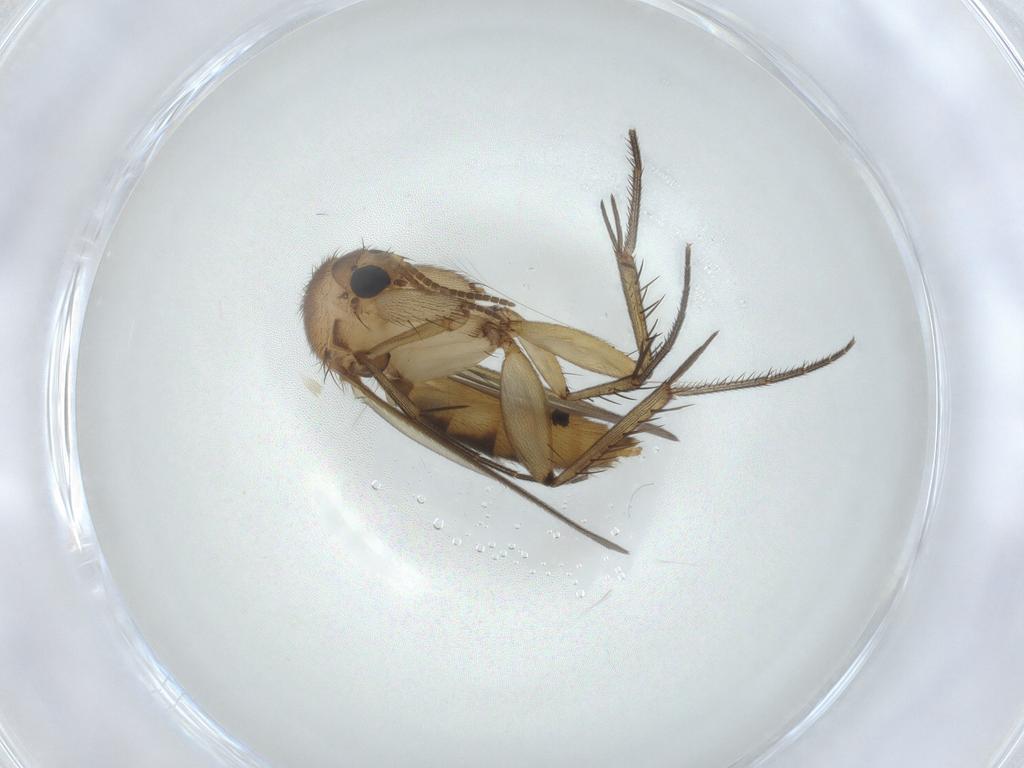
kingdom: Animalia
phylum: Arthropoda
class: Insecta
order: Diptera
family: Mycetophilidae
